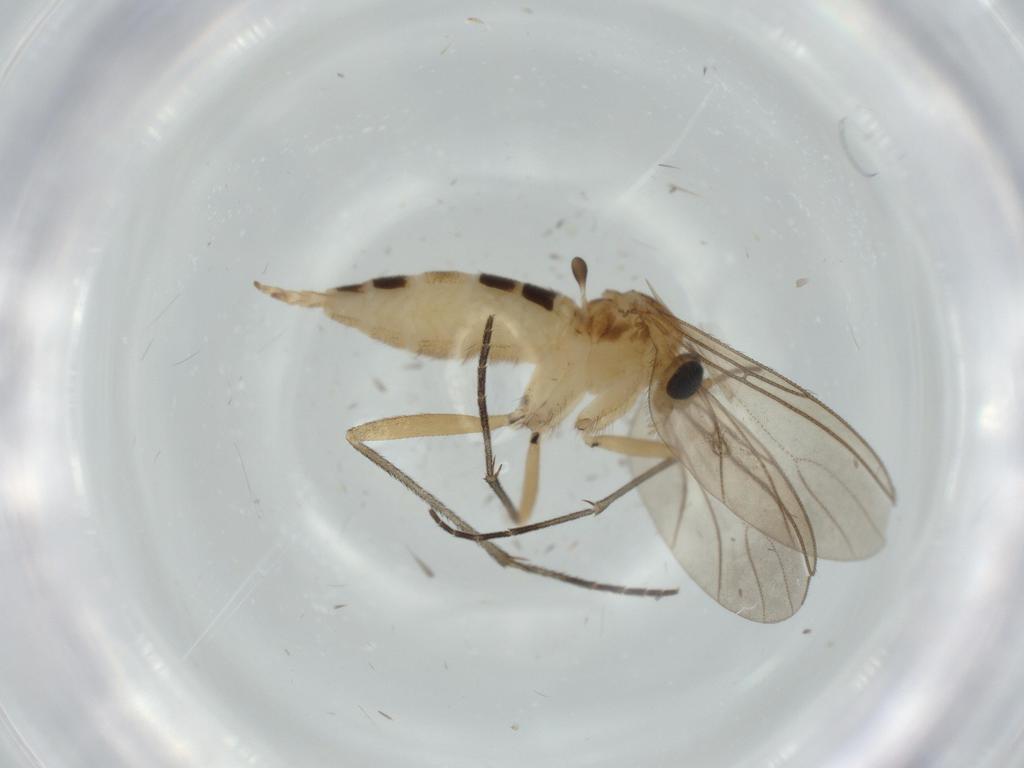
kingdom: Animalia
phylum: Arthropoda
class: Insecta
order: Diptera
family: Sciaridae
